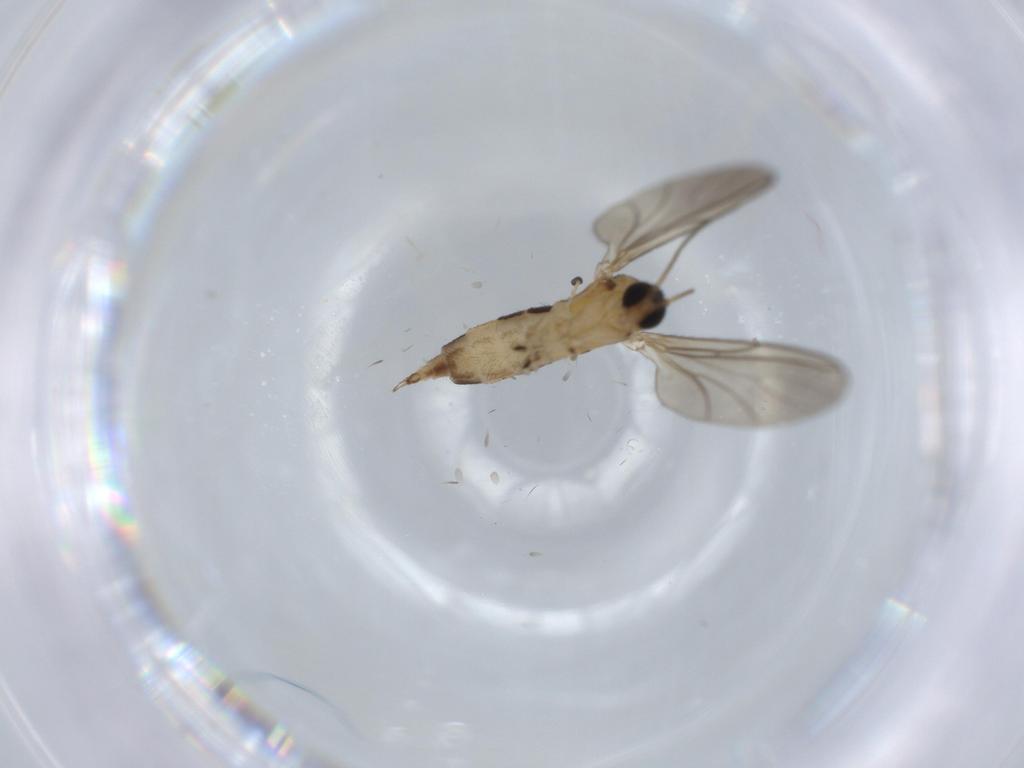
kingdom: Animalia
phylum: Arthropoda
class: Insecta
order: Diptera
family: Sciaridae
